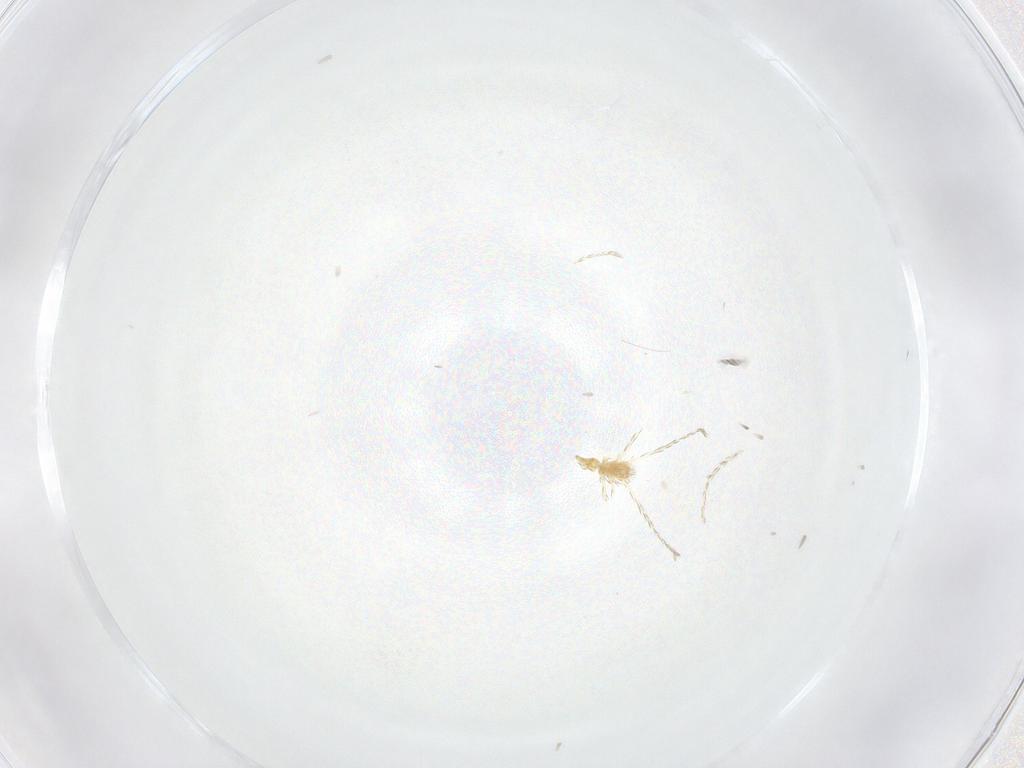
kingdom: Animalia
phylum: Arthropoda
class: Arachnida
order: Trombidiformes
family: Erythraeidae
